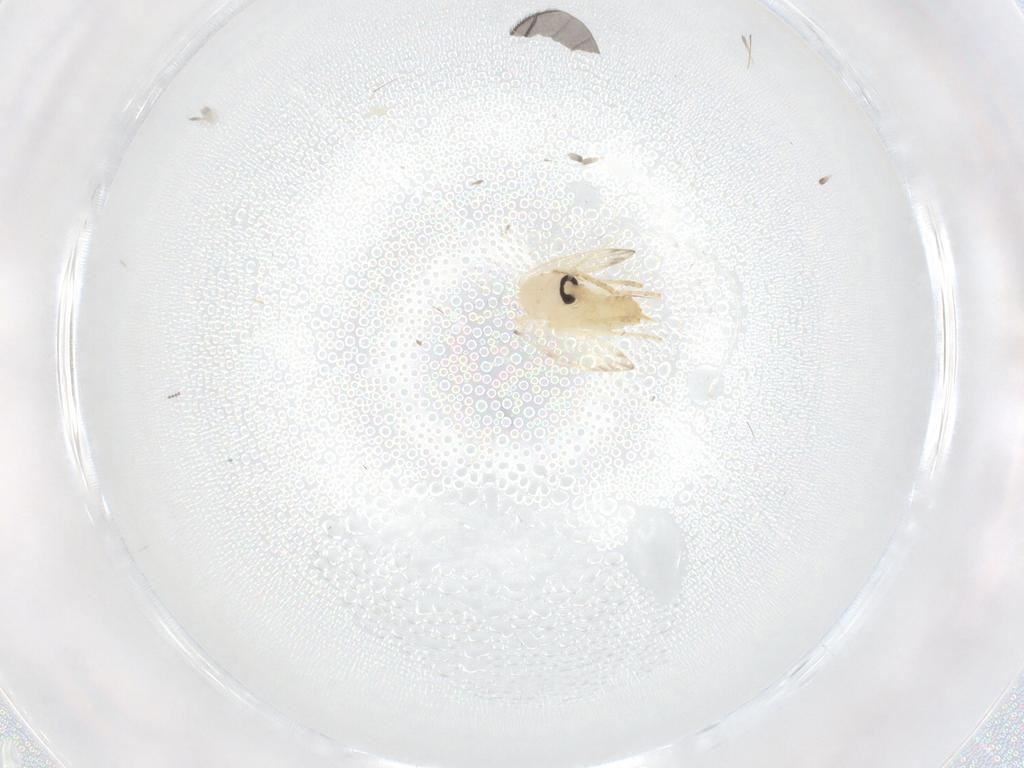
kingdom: Animalia
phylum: Arthropoda
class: Insecta
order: Diptera
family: Psychodidae
